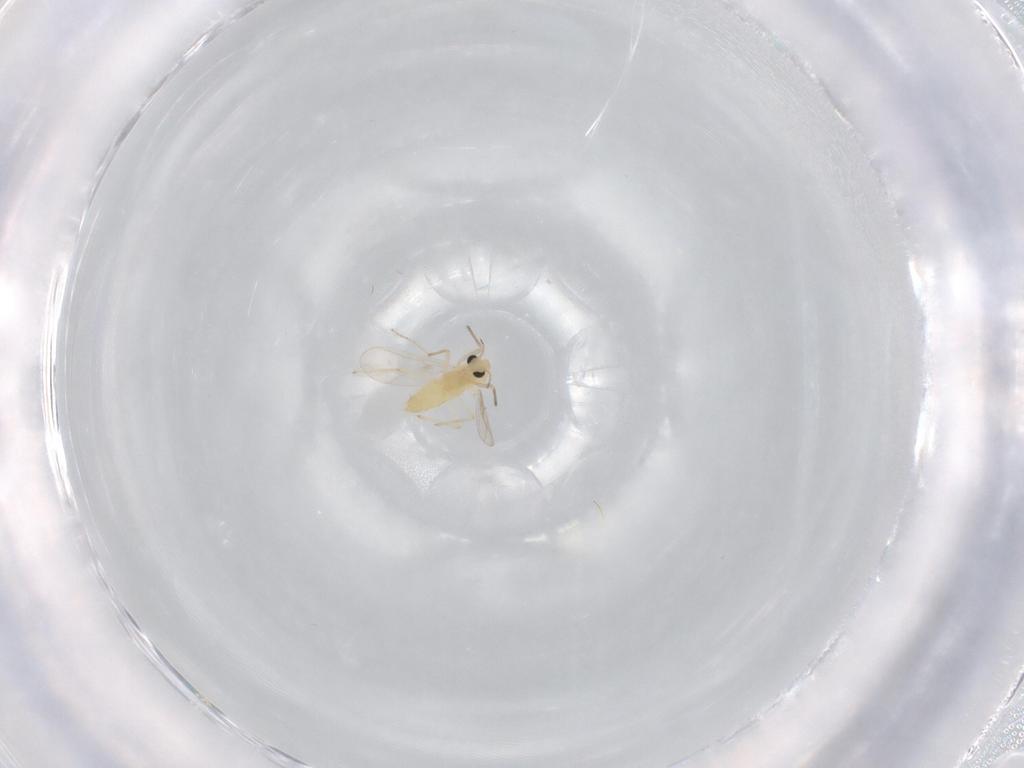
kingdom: Animalia
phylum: Arthropoda
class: Insecta
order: Diptera
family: Chironomidae
